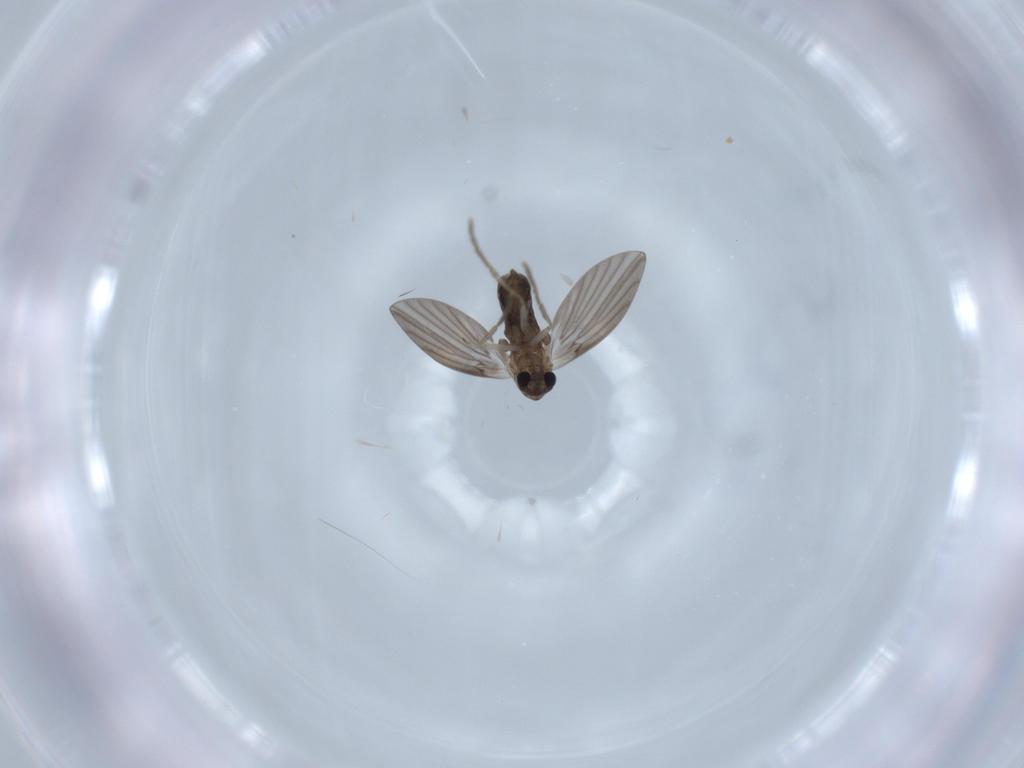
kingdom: Animalia
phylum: Arthropoda
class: Insecta
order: Diptera
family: Psychodidae
